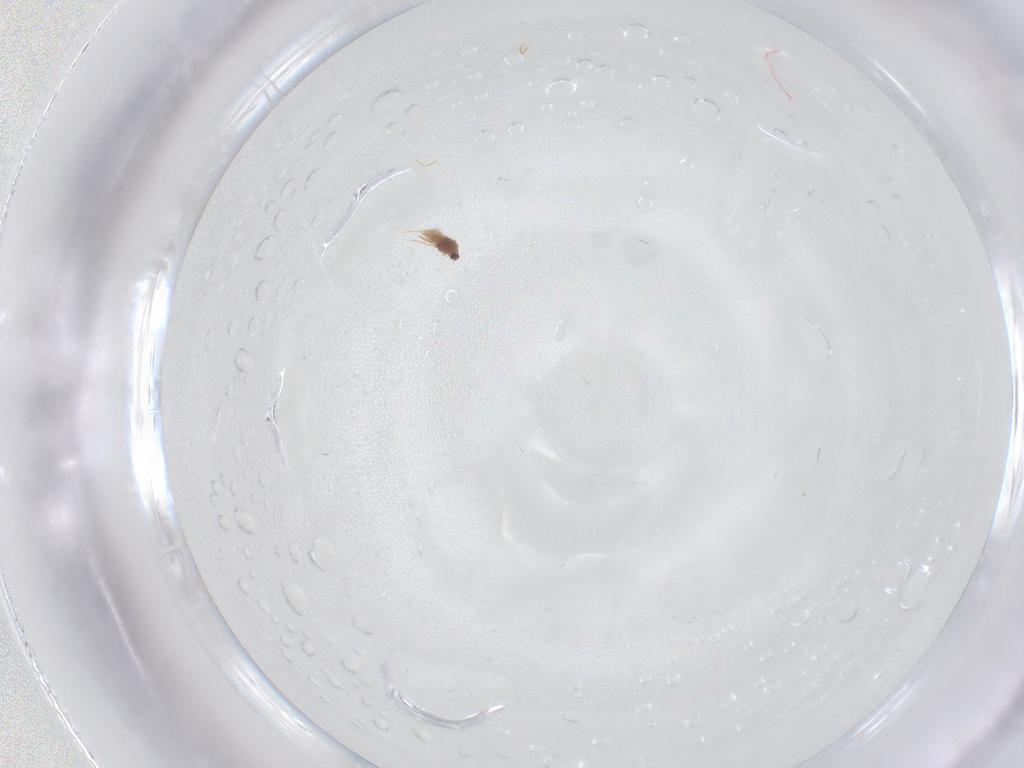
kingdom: Animalia
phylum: Arthropoda
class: Insecta
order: Hemiptera
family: Diaspididae
